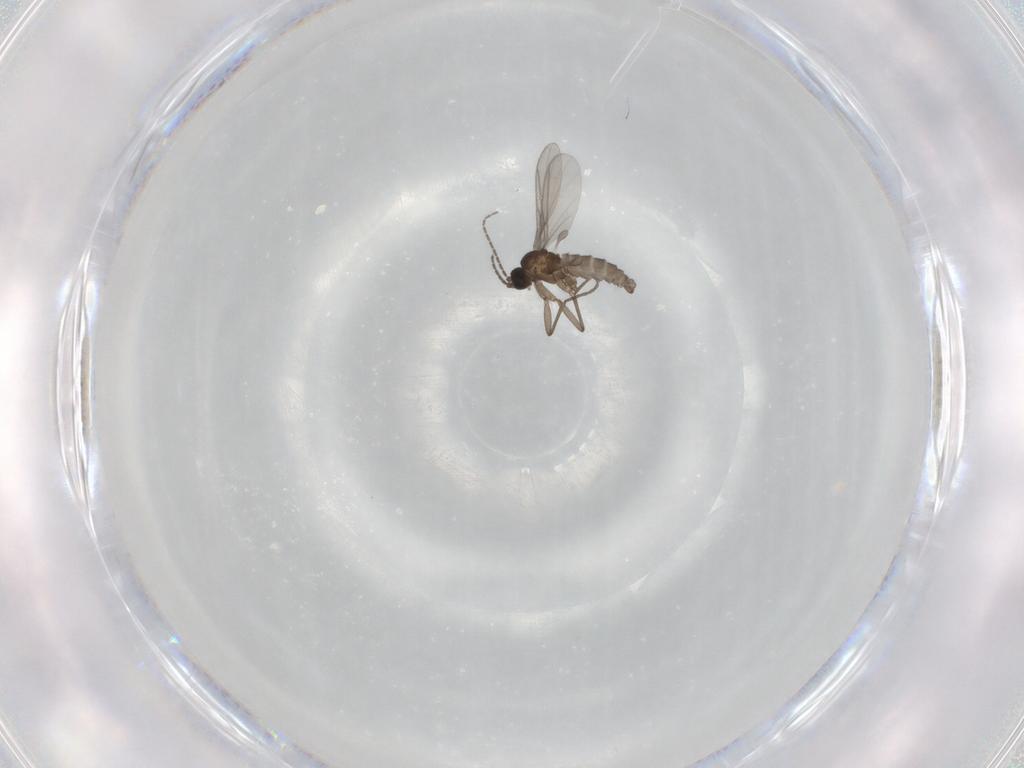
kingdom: Animalia
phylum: Arthropoda
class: Insecta
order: Diptera
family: Sciaridae
